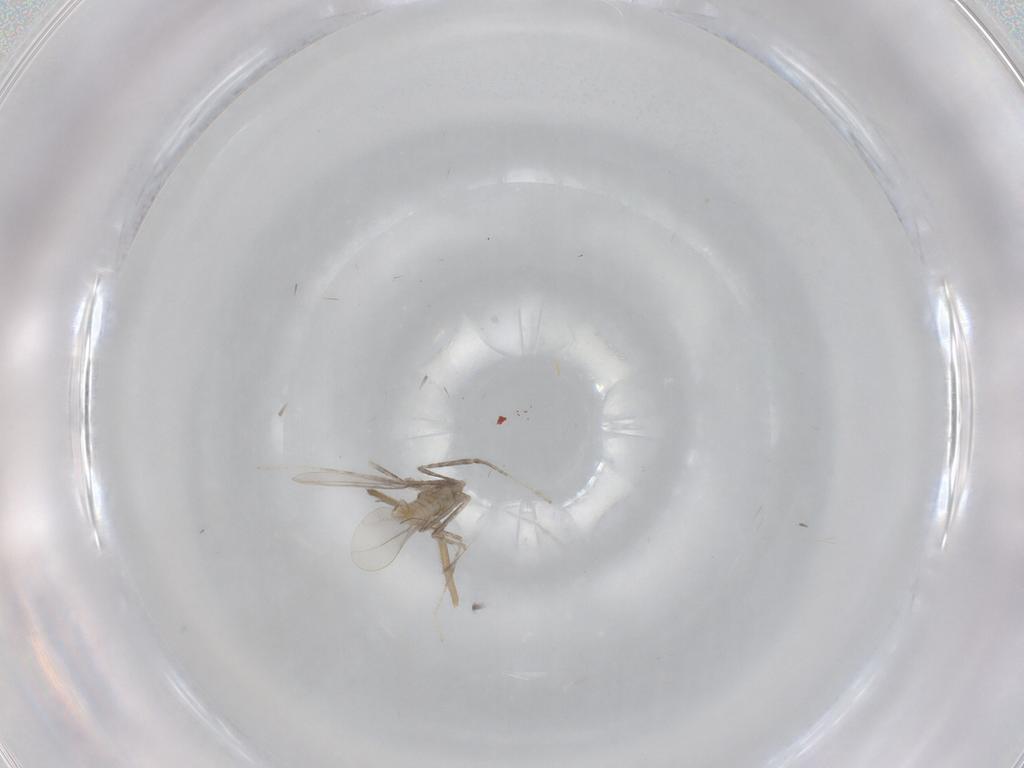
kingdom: Animalia
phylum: Arthropoda
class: Insecta
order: Diptera
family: Chironomidae
